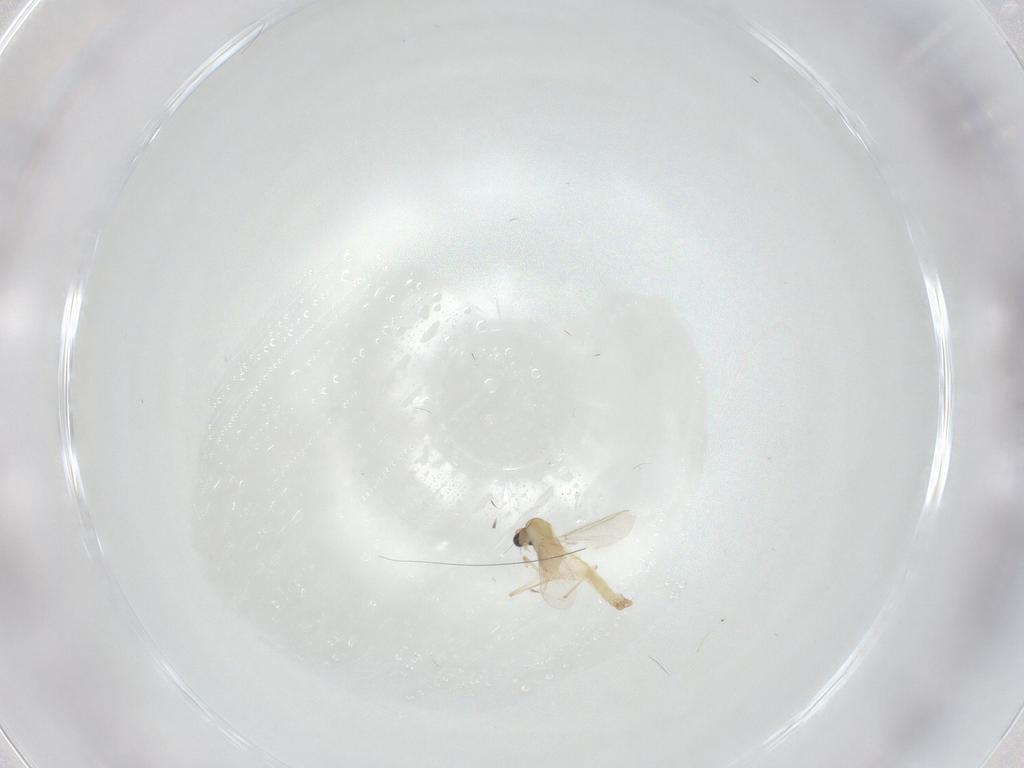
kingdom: Animalia
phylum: Arthropoda
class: Insecta
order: Diptera
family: Chironomidae
